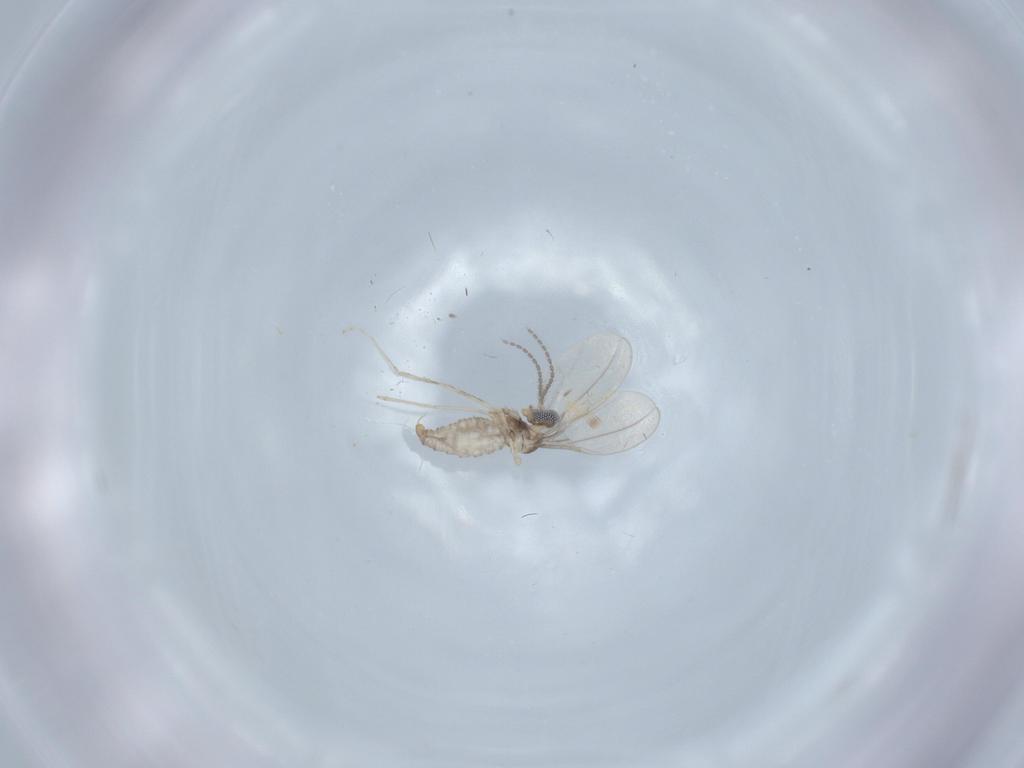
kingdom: Animalia
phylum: Arthropoda
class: Insecta
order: Diptera
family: Cecidomyiidae
